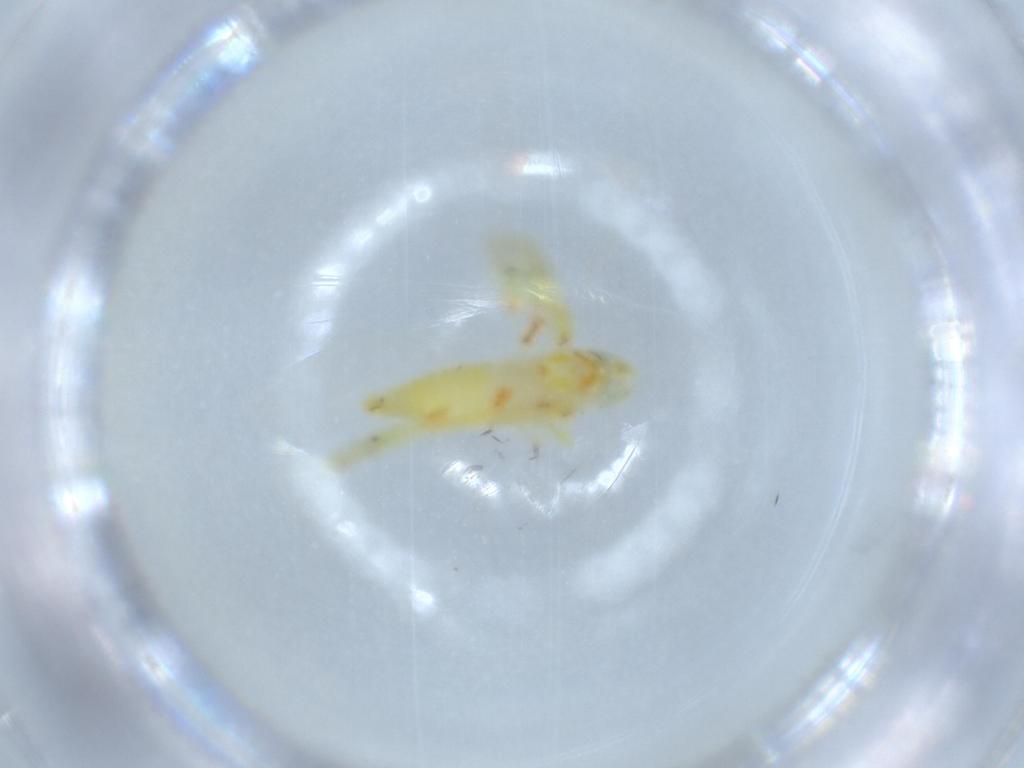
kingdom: Animalia
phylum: Arthropoda
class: Insecta
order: Hemiptera
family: Cicadellidae
